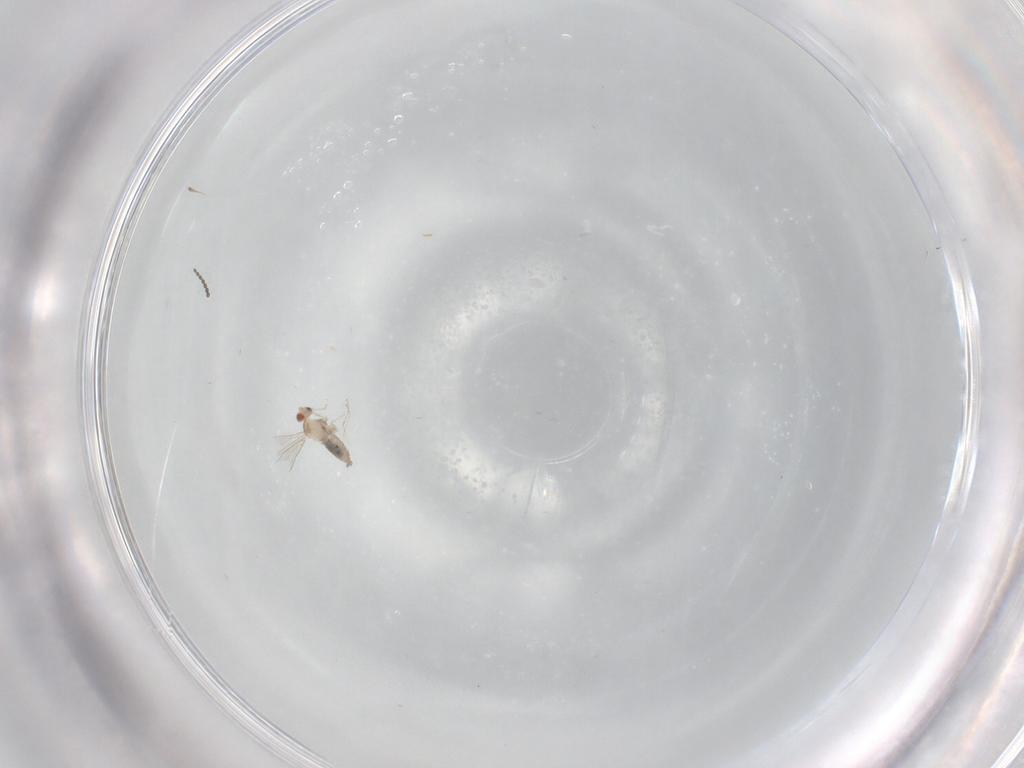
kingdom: Animalia
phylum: Arthropoda
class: Insecta
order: Diptera
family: Cecidomyiidae
